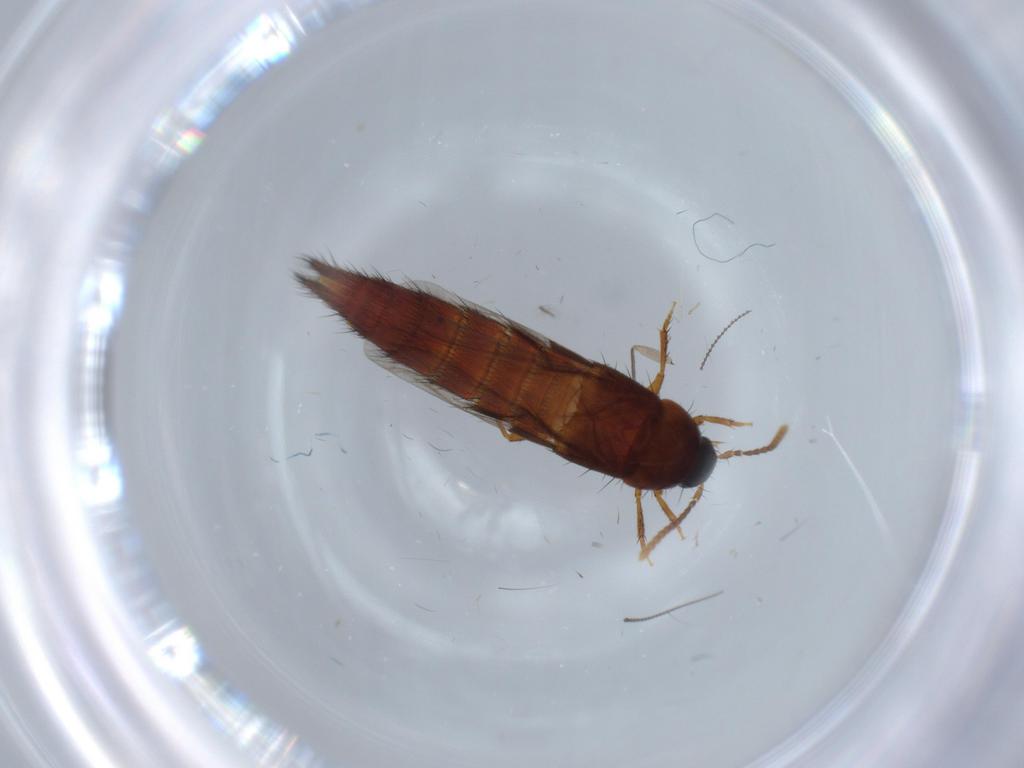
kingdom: Animalia
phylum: Arthropoda
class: Insecta
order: Coleoptera
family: Staphylinidae
